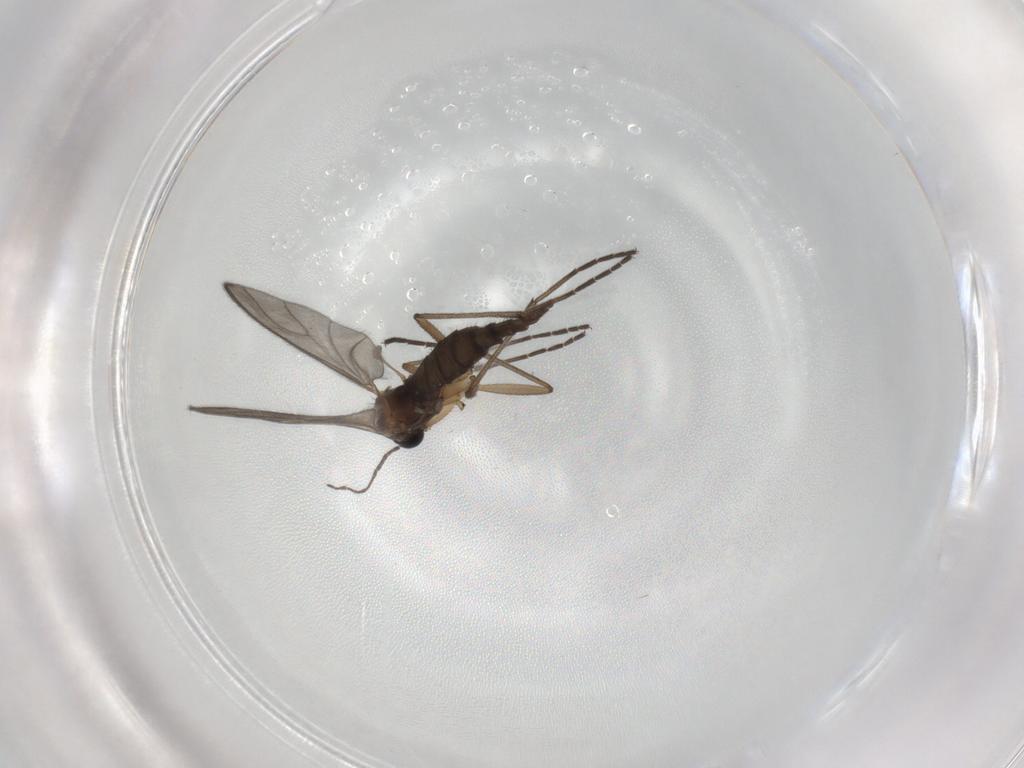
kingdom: Animalia
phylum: Arthropoda
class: Insecta
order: Diptera
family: Sciaridae
